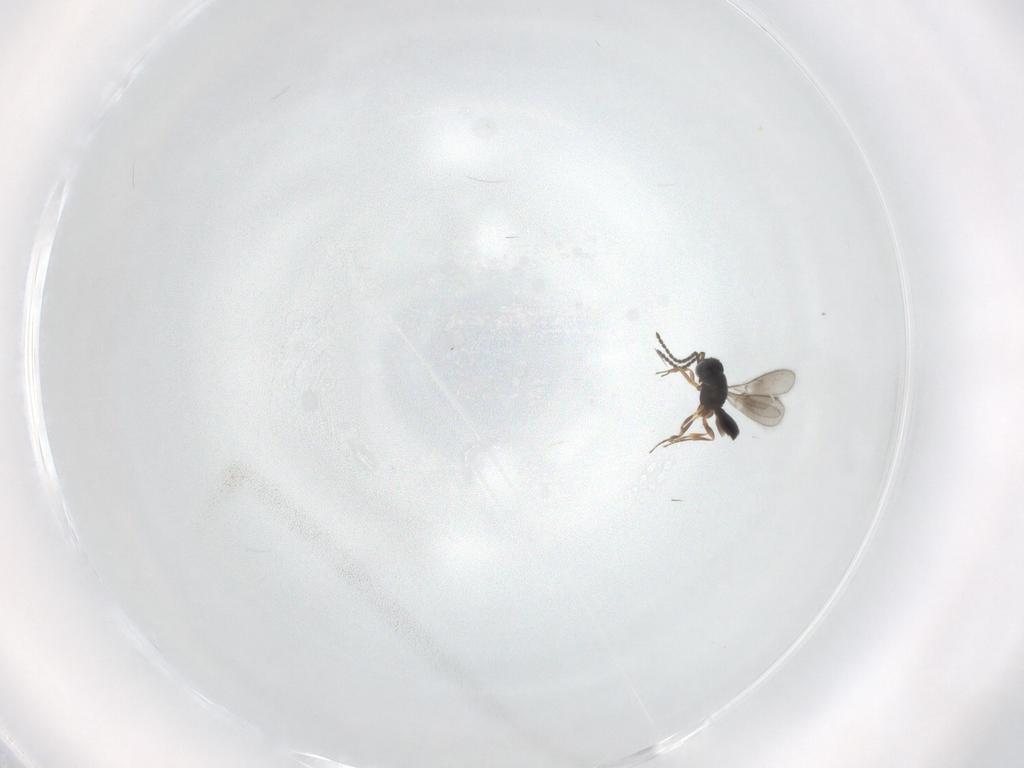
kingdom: Animalia
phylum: Arthropoda
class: Insecta
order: Hymenoptera
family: Scelionidae
